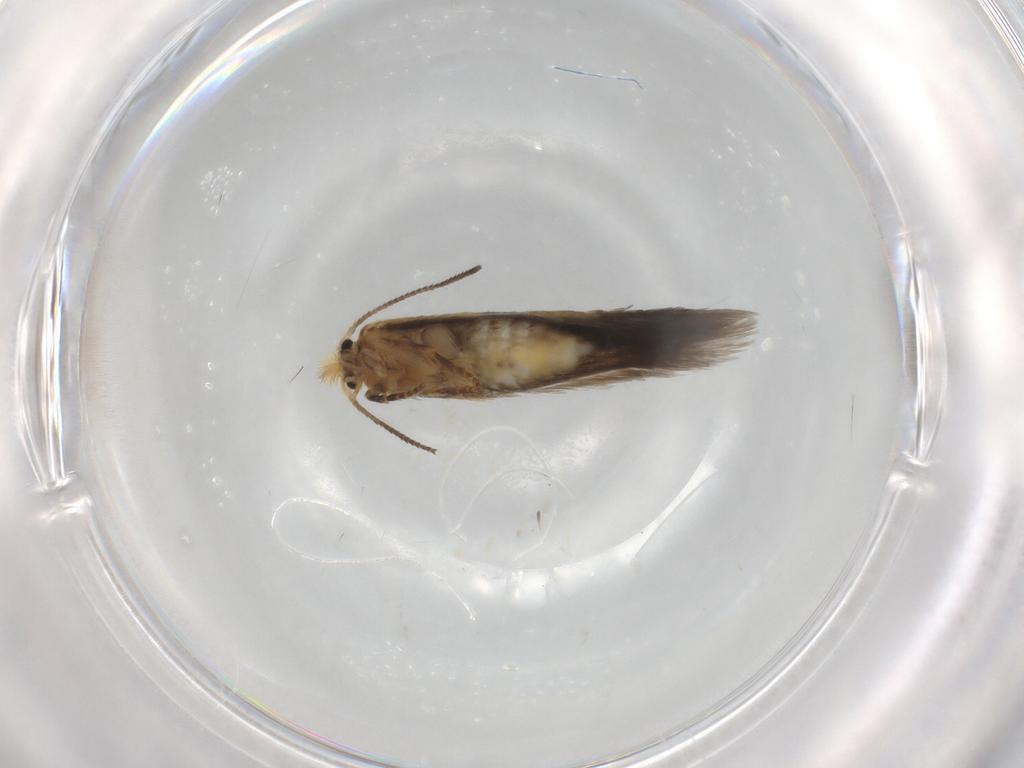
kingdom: Animalia
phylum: Arthropoda
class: Insecta
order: Lepidoptera
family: Nepticulidae
